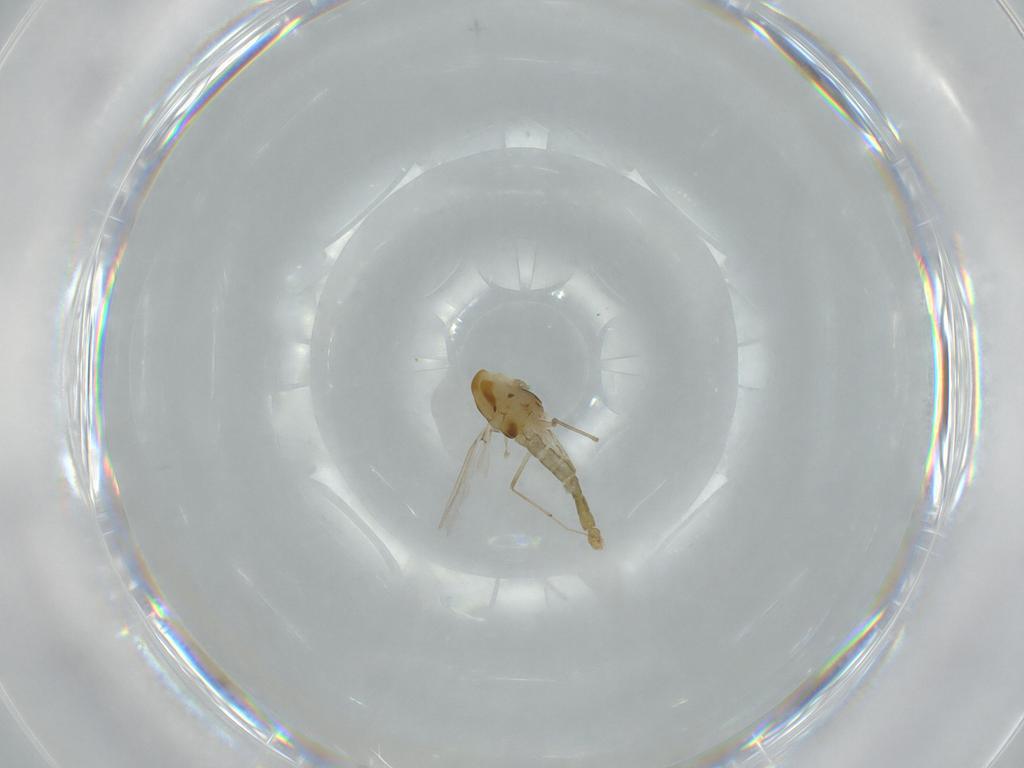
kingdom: Animalia
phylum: Arthropoda
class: Insecta
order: Diptera
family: Chironomidae
